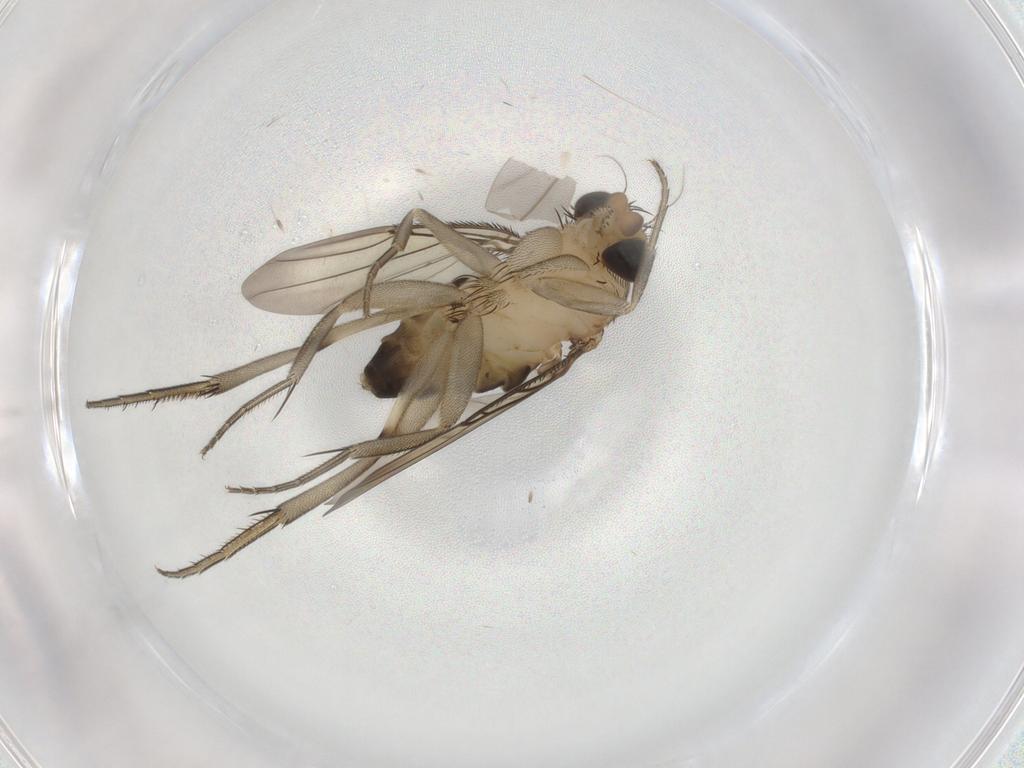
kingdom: Animalia
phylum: Arthropoda
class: Insecta
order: Diptera
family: Phoridae
